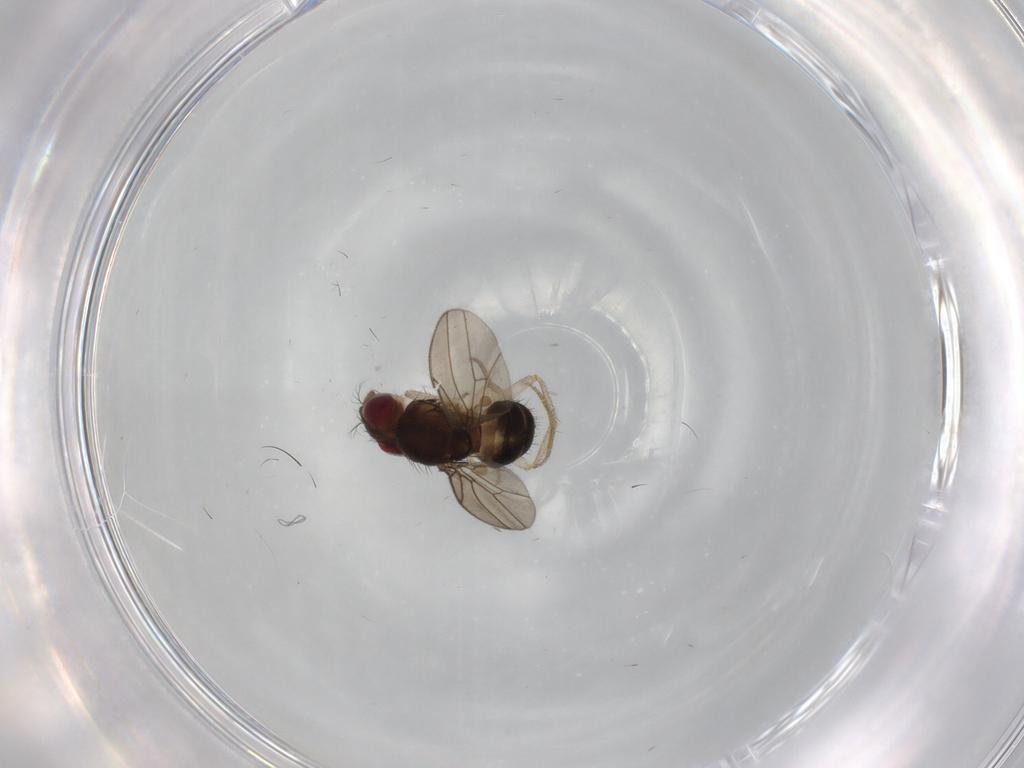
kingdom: Animalia
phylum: Arthropoda
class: Insecta
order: Diptera
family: Drosophilidae
